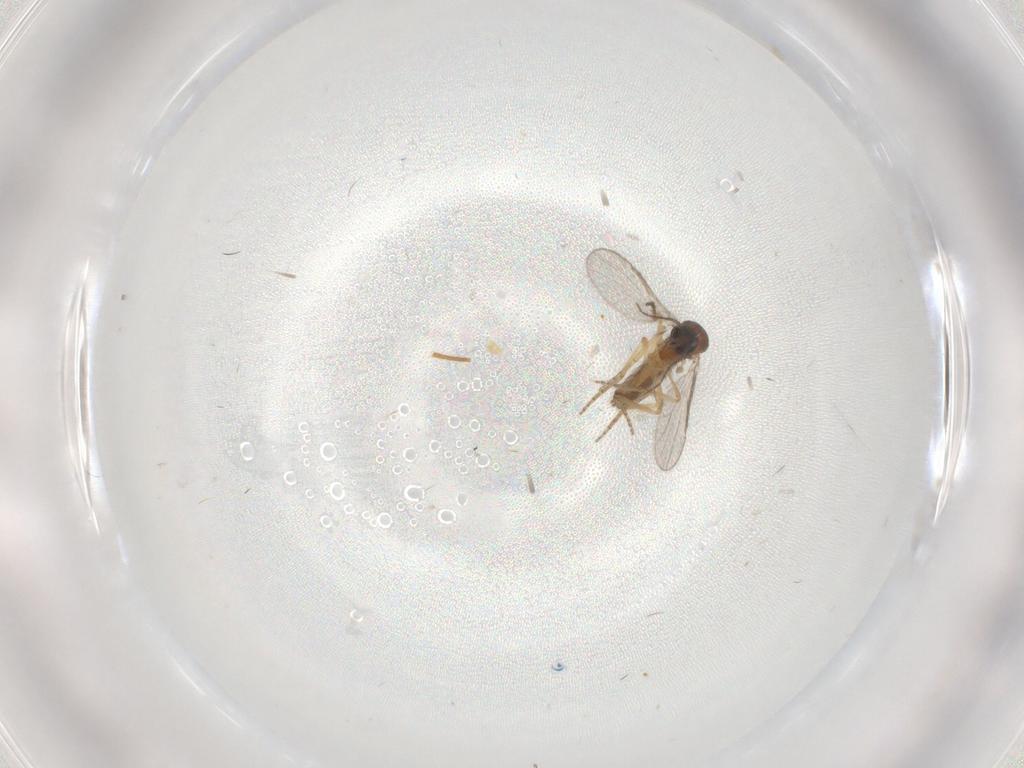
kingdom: Animalia
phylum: Arthropoda
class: Insecta
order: Diptera
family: Ceratopogonidae
